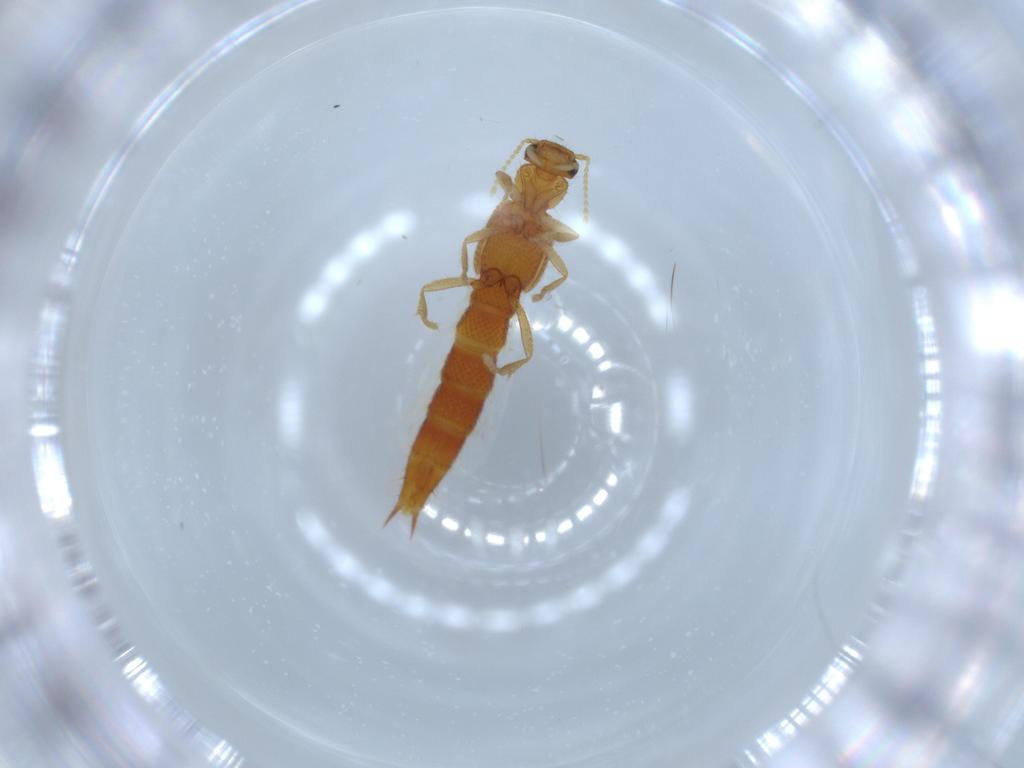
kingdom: Animalia
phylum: Arthropoda
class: Insecta
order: Coleoptera
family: Staphylinidae
